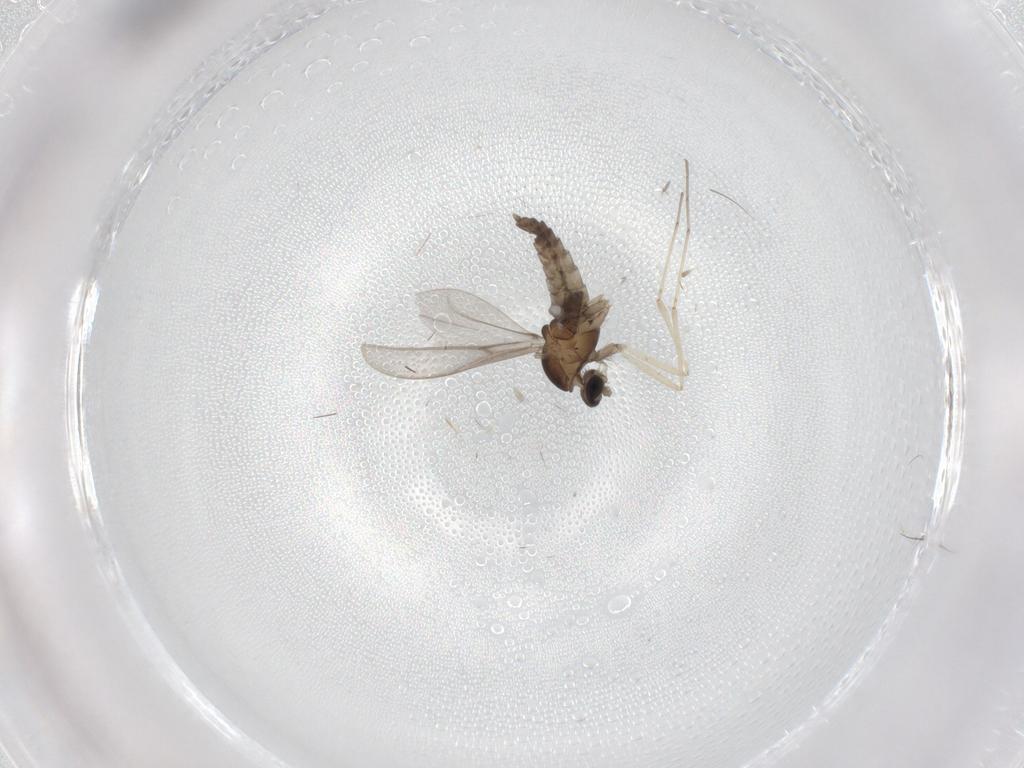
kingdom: Animalia
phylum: Arthropoda
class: Insecta
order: Diptera
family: Cecidomyiidae
